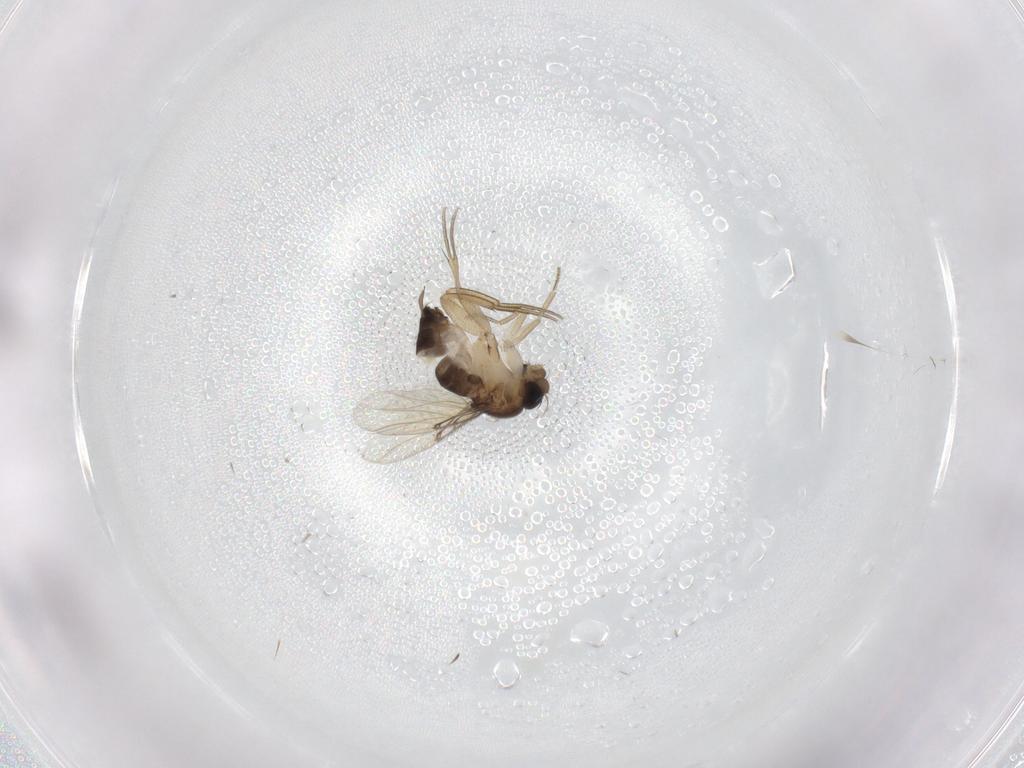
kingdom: Animalia
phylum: Arthropoda
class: Insecta
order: Diptera
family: Cecidomyiidae
